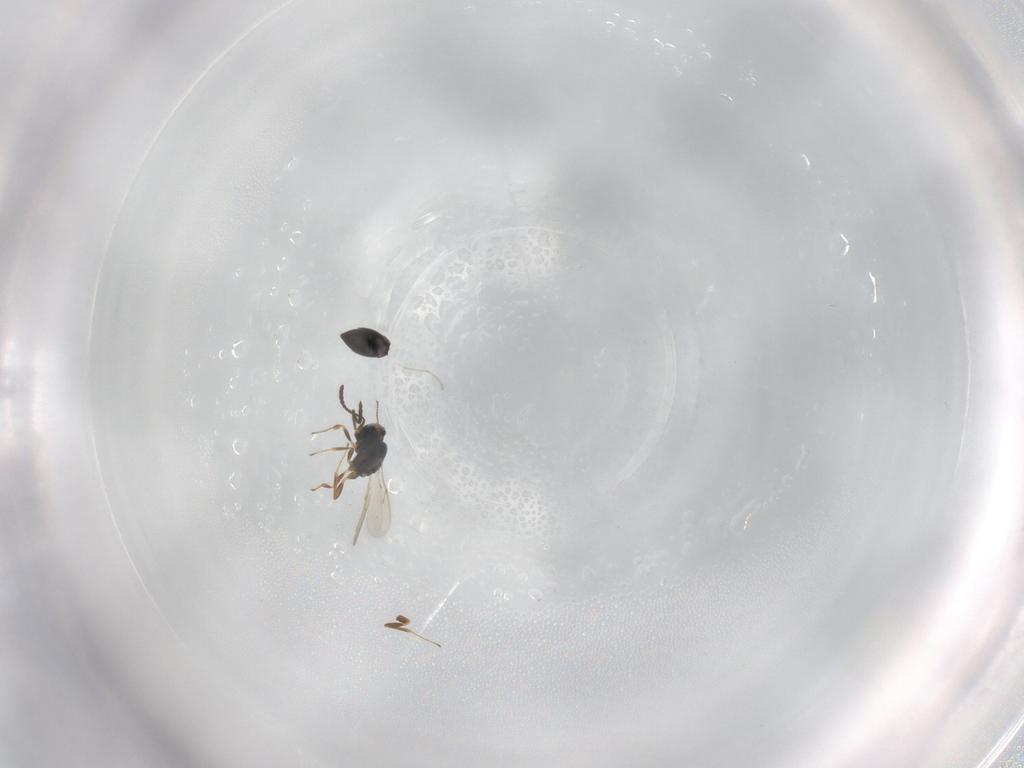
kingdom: Animalia
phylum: Arthropoda
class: Insecta
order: Hymenoptera
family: Scelionidae
